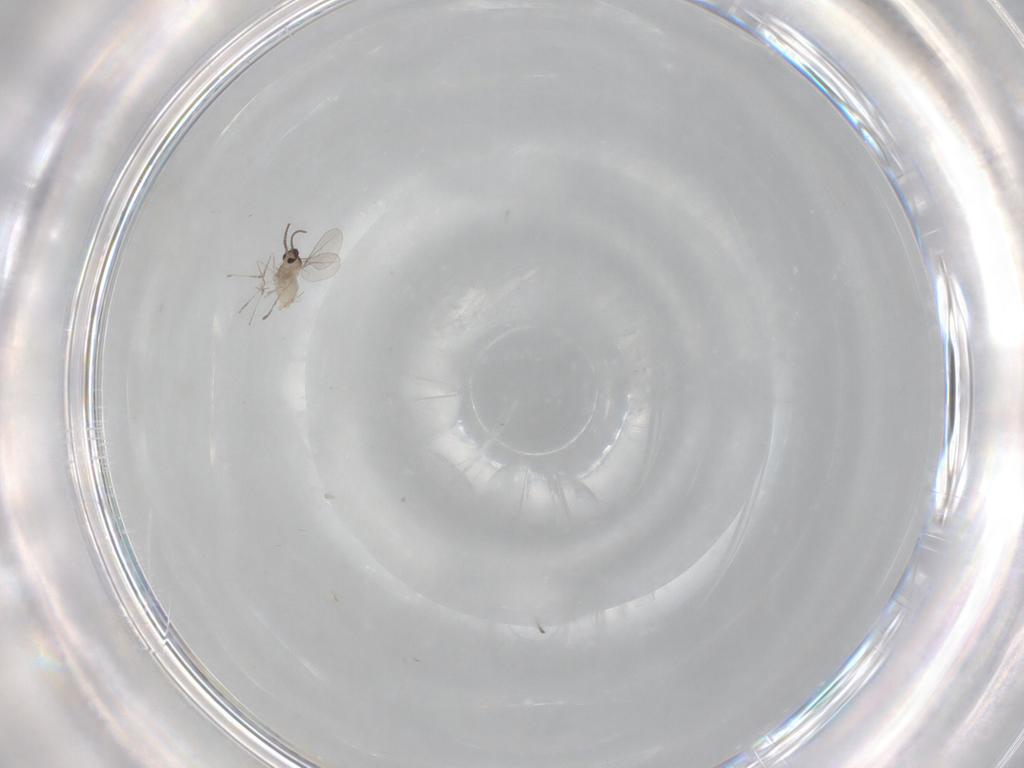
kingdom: Animalia
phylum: Arthropoda
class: Insecta
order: Diptera
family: Cecidomyiidae
